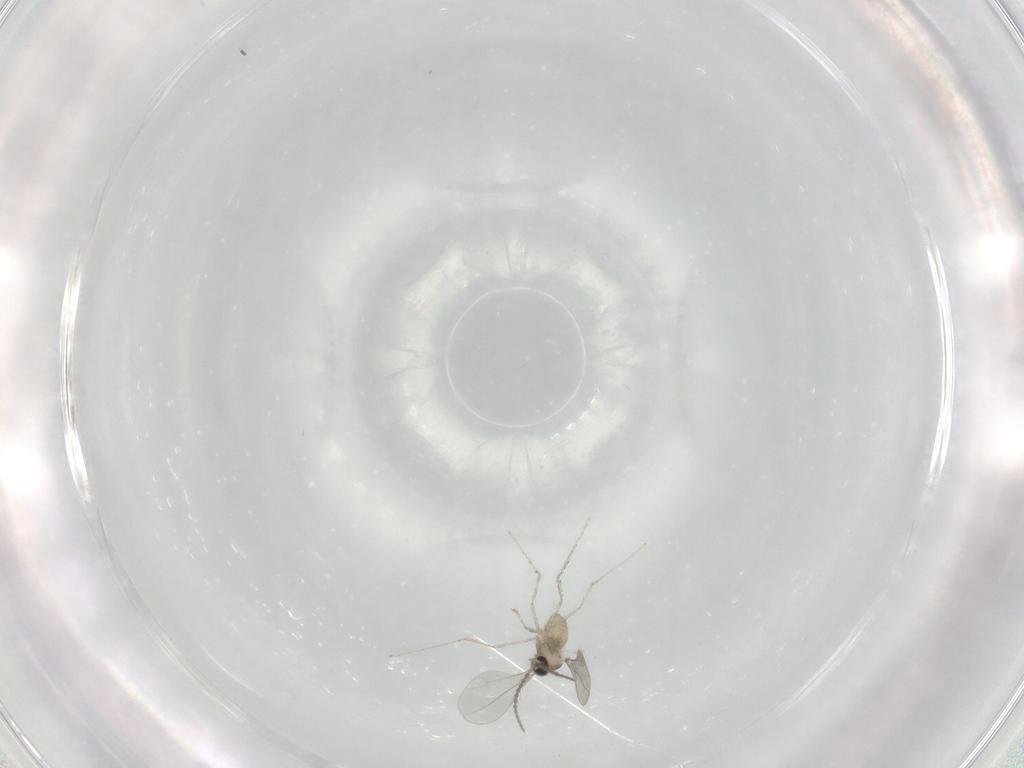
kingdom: Animalia
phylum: Arthropoda
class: Insecta
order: Diptera
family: Cecidomyiidae
